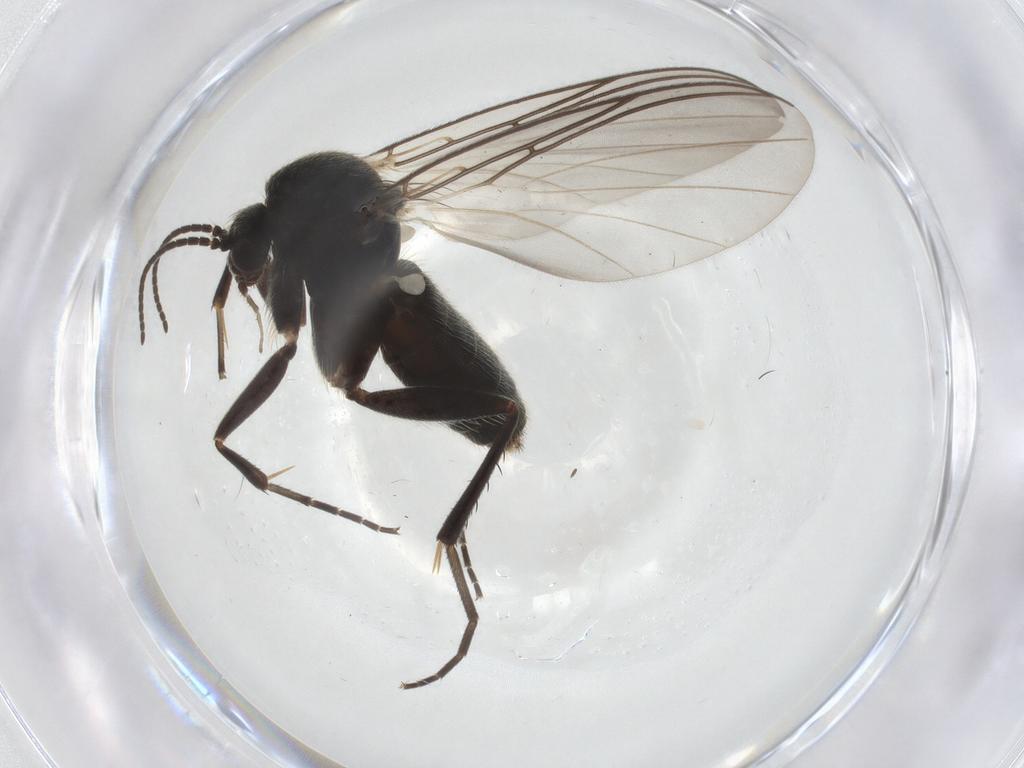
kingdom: Animalia
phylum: Arthropoda
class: Insecta
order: Diptera
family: Mycetophilidae
